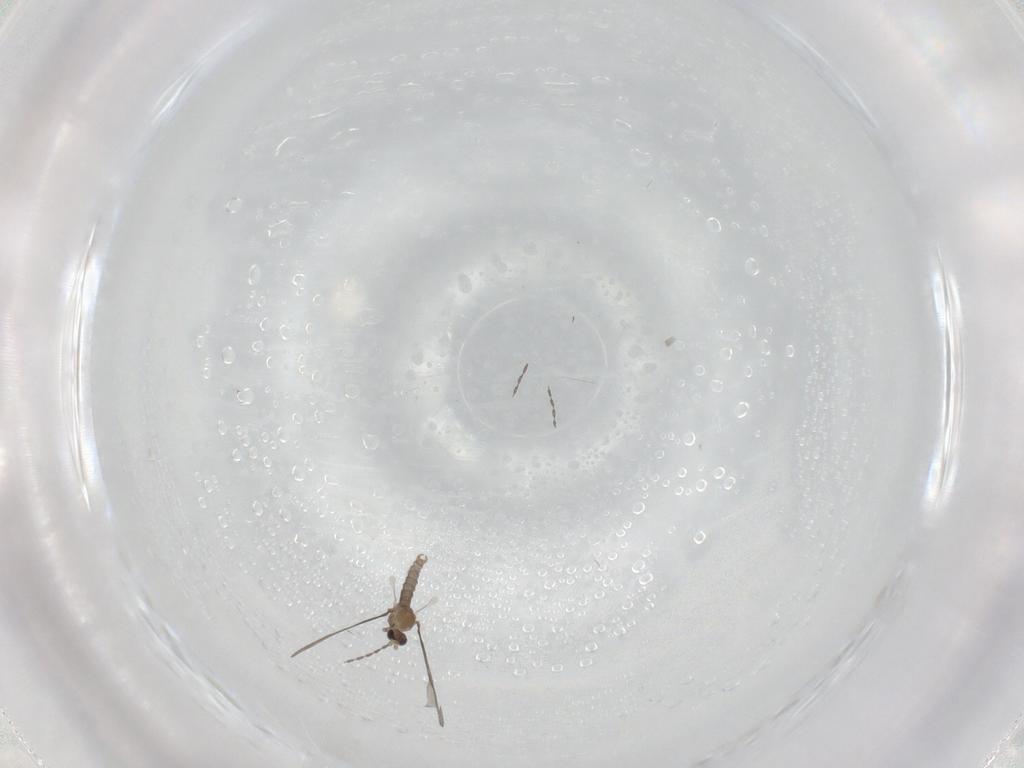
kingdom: Animalia
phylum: Arthropoda
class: Insecta
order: Diptera
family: Cecidomyiidae
